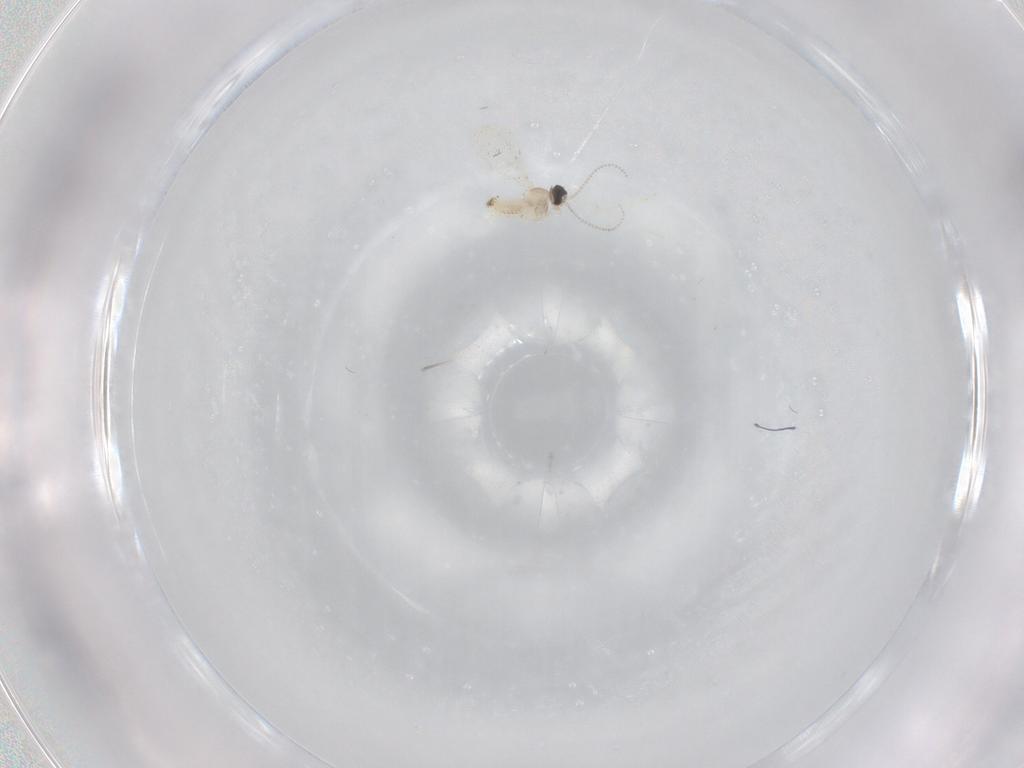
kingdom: Animalia
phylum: Arthropoda
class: Insecta
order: Diptera
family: Cecidomyiidae
